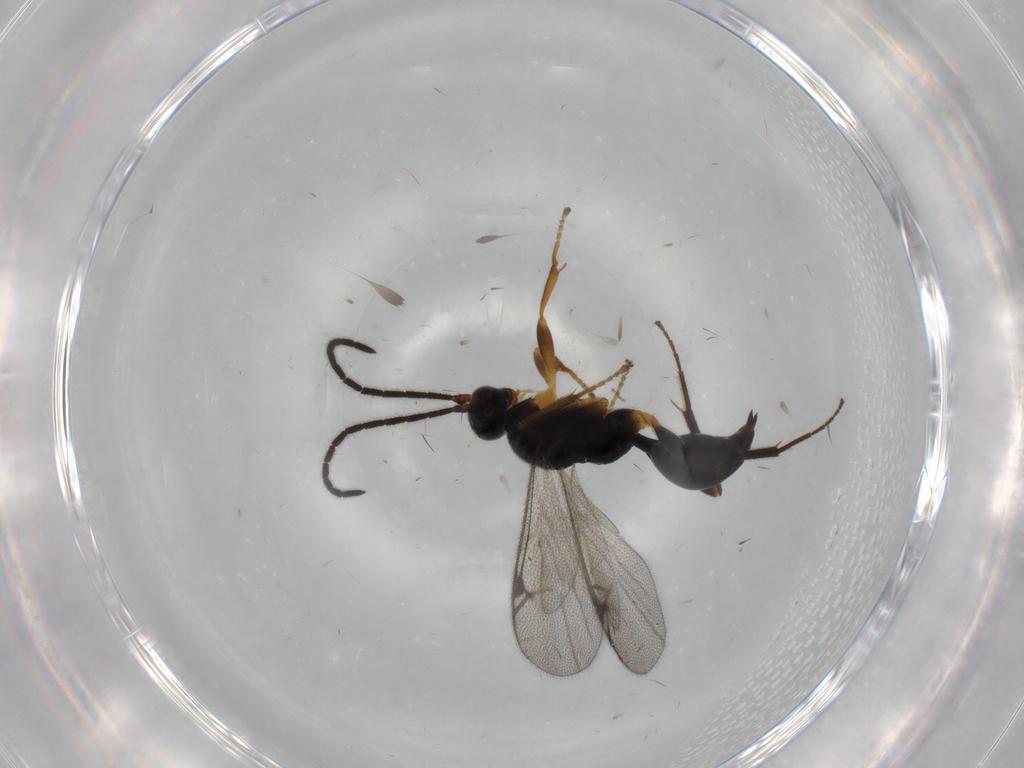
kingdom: Animalia
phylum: Arthropoda
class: Insecta
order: Hymenoptera
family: Proctotrupidae
